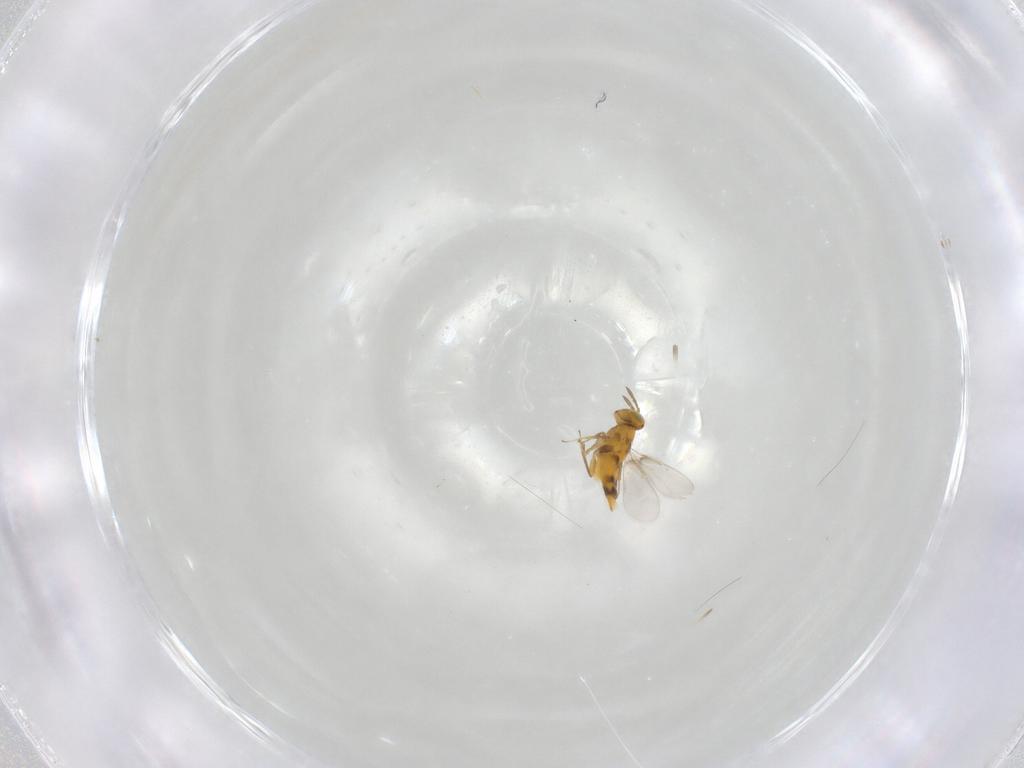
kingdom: Animalia
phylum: Arthropoda
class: Insecta
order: Hymenoptera
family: Aphelinidae
